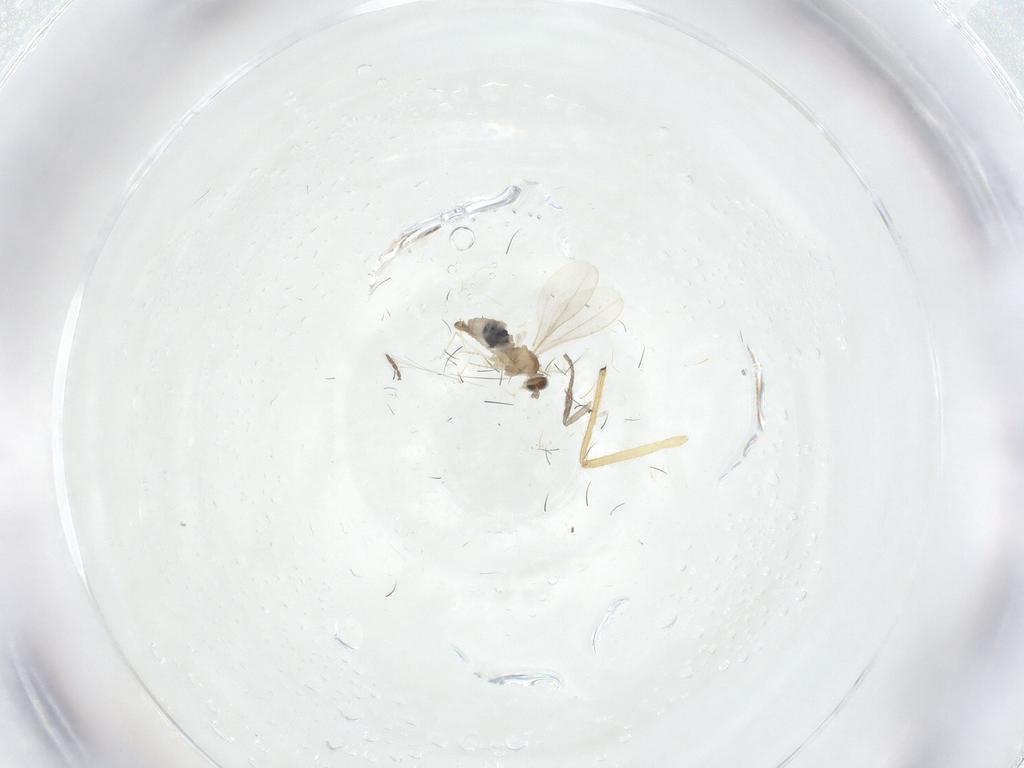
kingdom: Animalia
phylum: Arthropoda
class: Insecta
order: Diptera
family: Chironomidae
